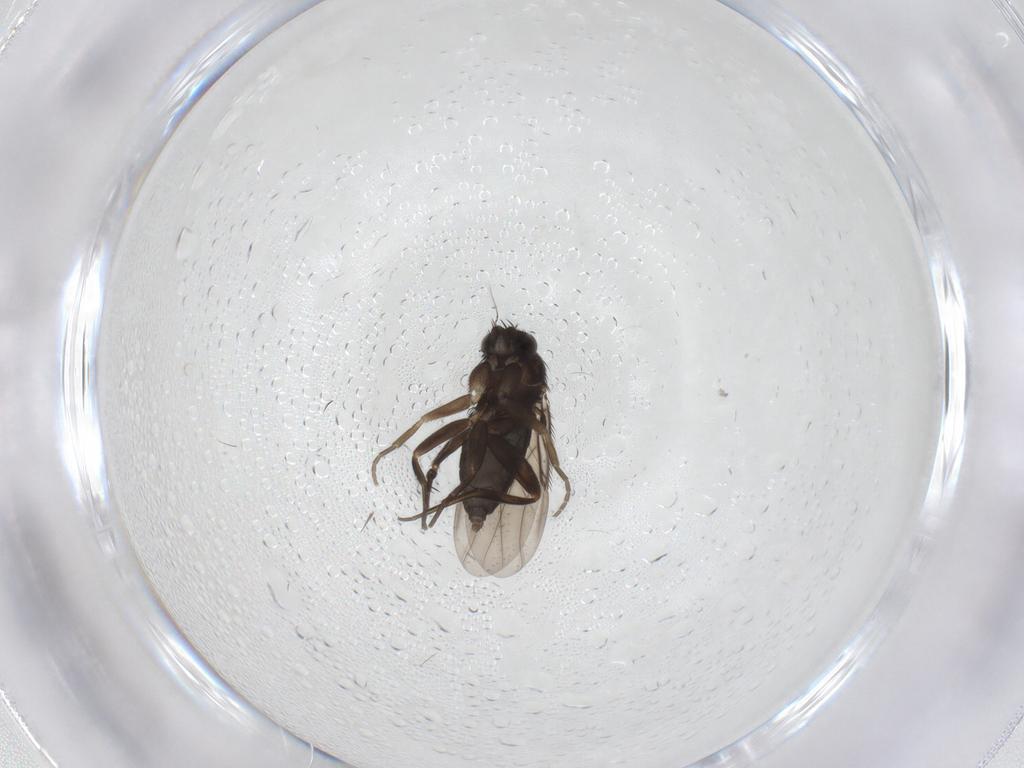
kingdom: Animalia
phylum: Arthropoda
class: Insecta
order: Diptera
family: Phoridae
